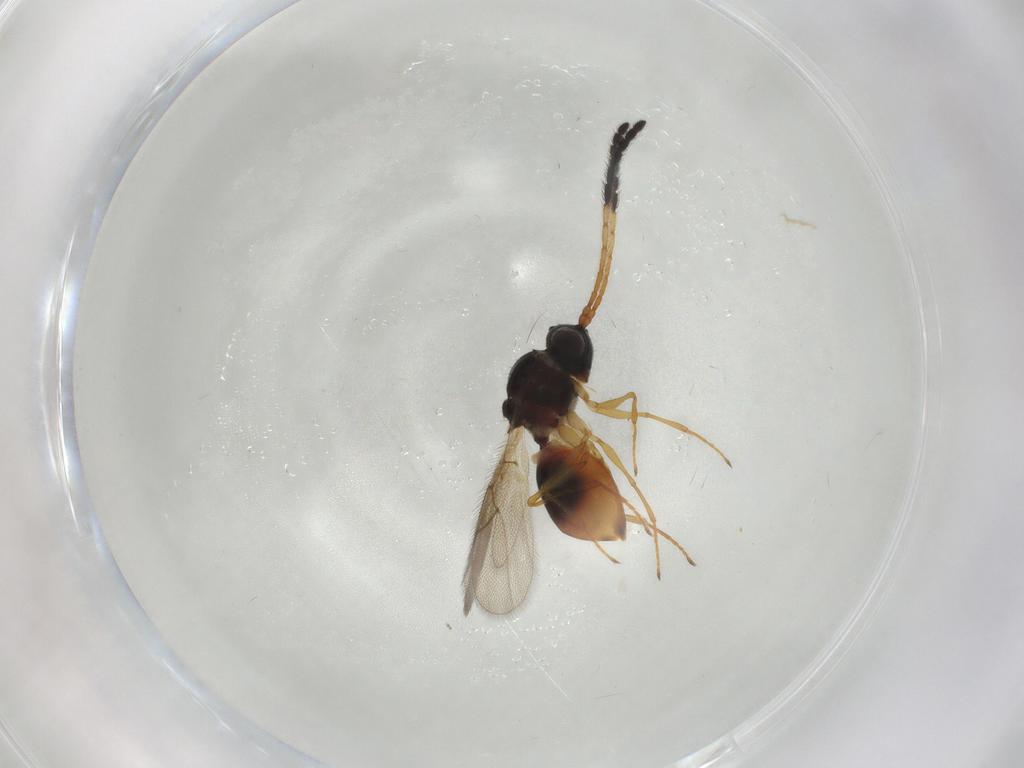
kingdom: Animalia
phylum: Arthropoda
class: Insecta
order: Hymenoptera
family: Figitidae
